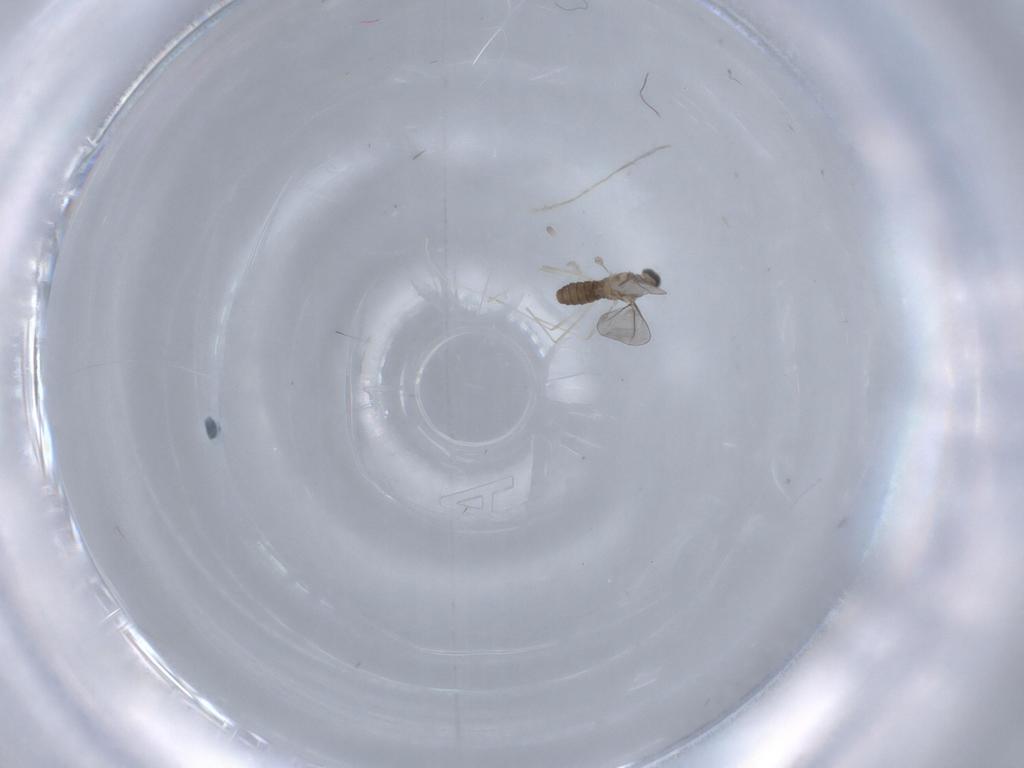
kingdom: Animalia
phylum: Arthropoda
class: Insecta
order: Diptera
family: Cecidomyiidae
